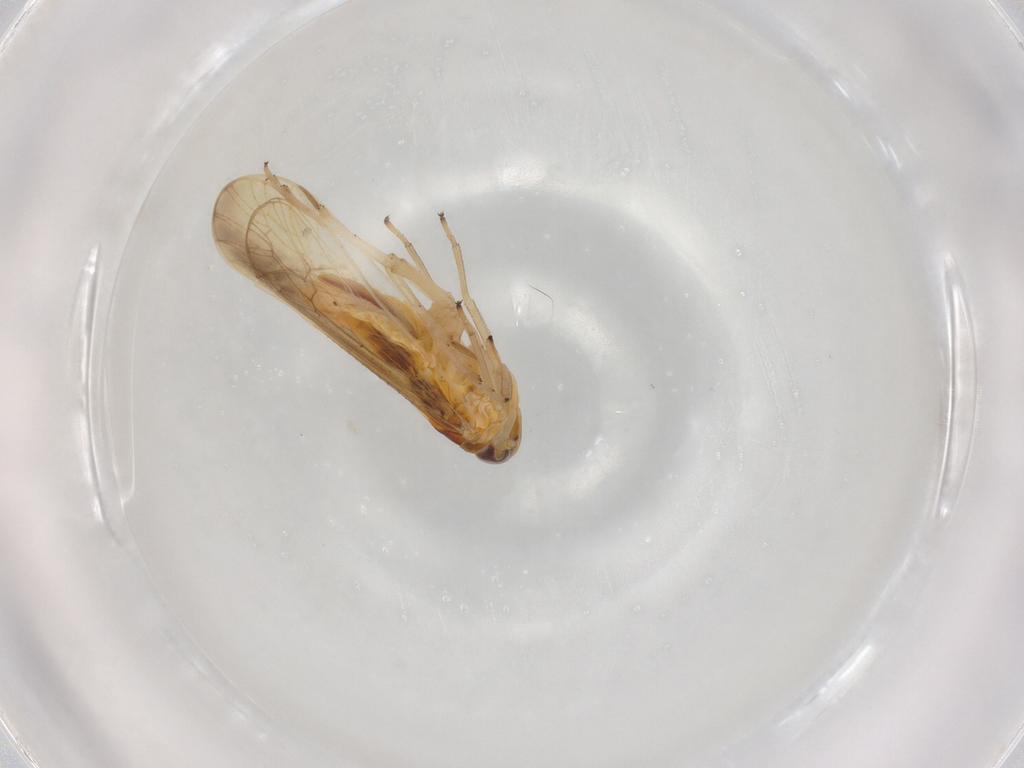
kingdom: Animalia
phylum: Arthropoda
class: Insecta
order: Hemiptera
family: Delphacidae
